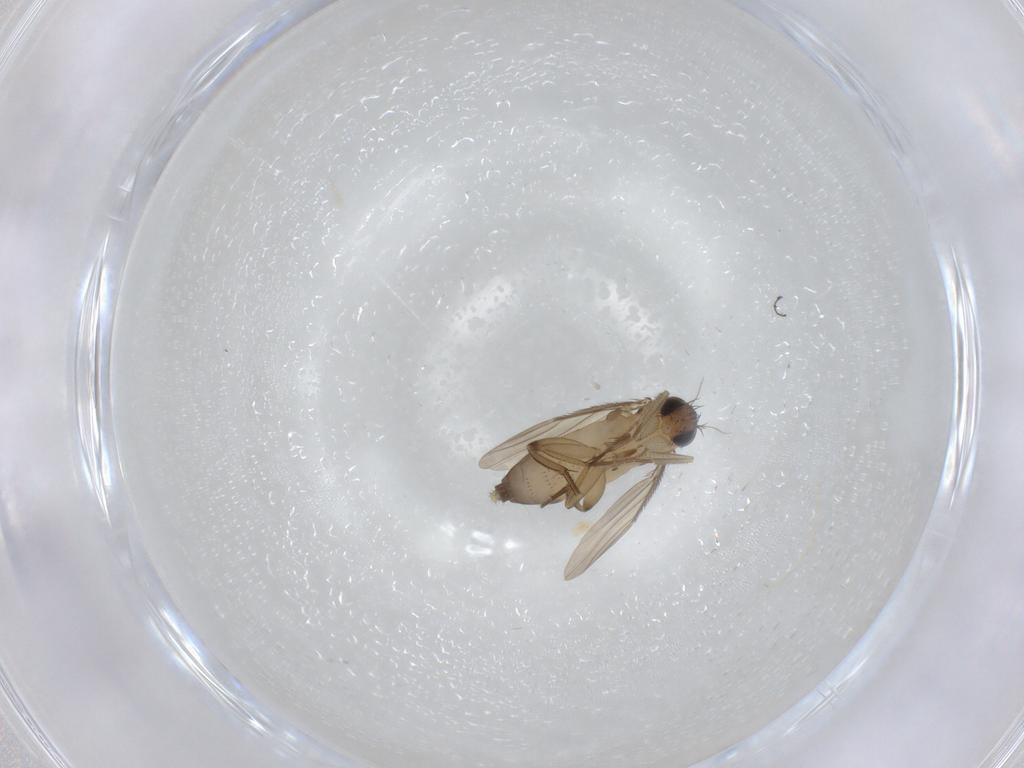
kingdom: Animalia
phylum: Arthropoda
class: Insecta
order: Diptera
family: Phoridae
